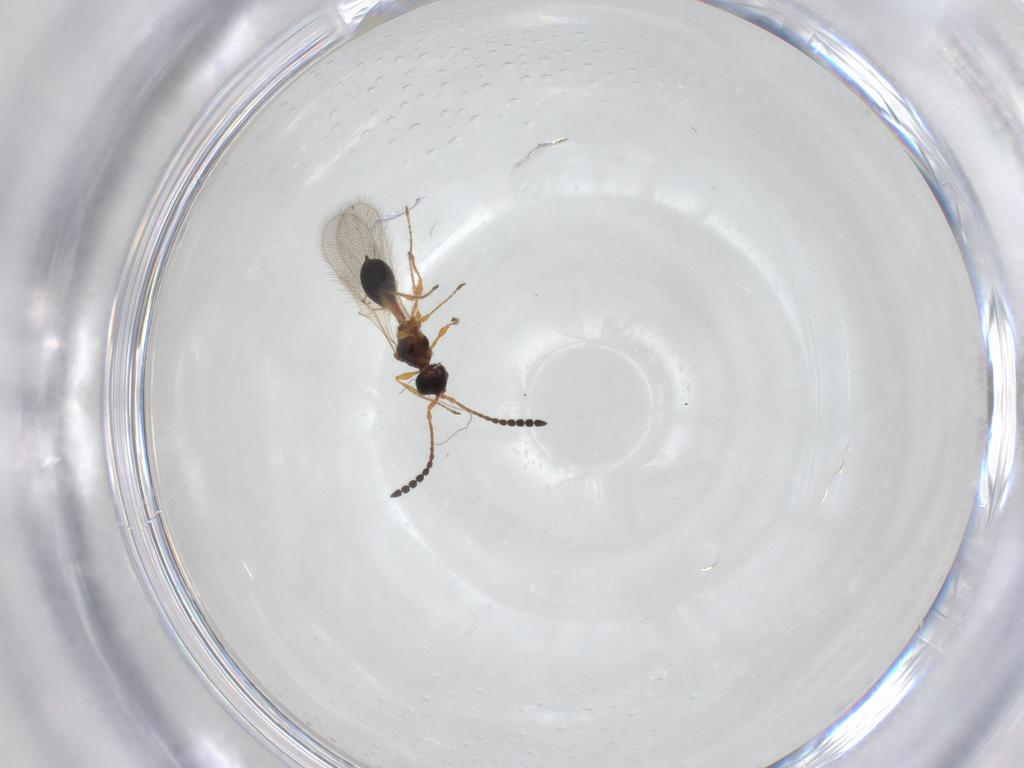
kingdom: Animalia
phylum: Arthropoda
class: Insecta
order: Hymenoptera
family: Diapriidae
